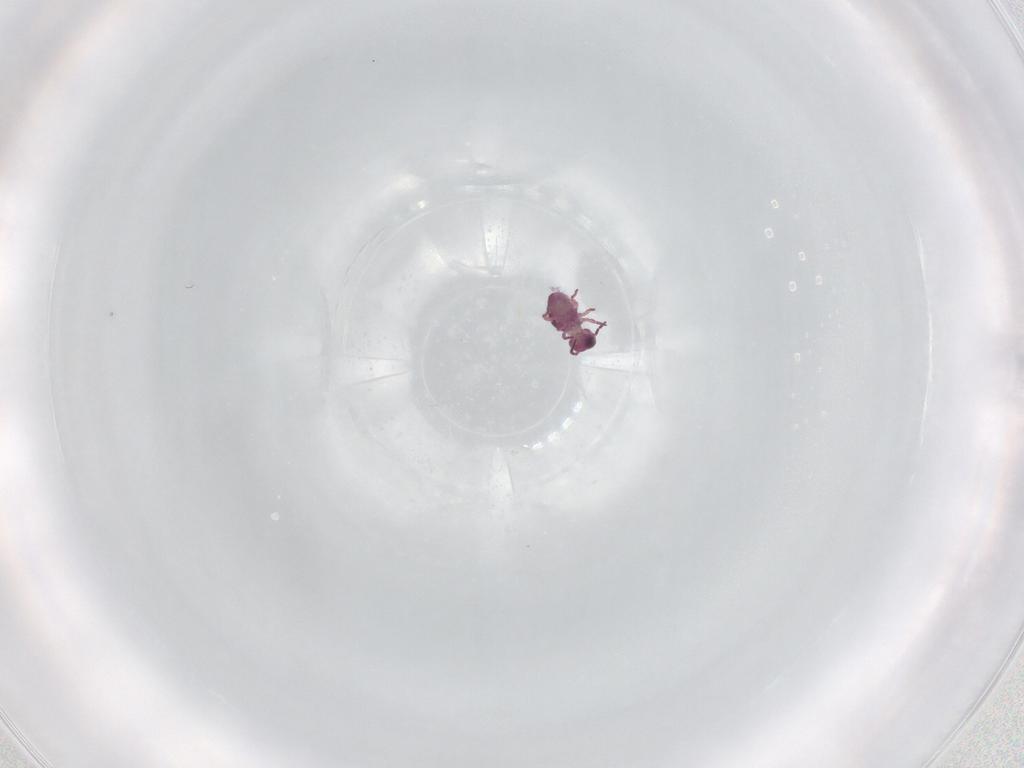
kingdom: Animalia
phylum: Arthropoda
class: Collembola
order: Symphypleona
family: Sminthurididae
